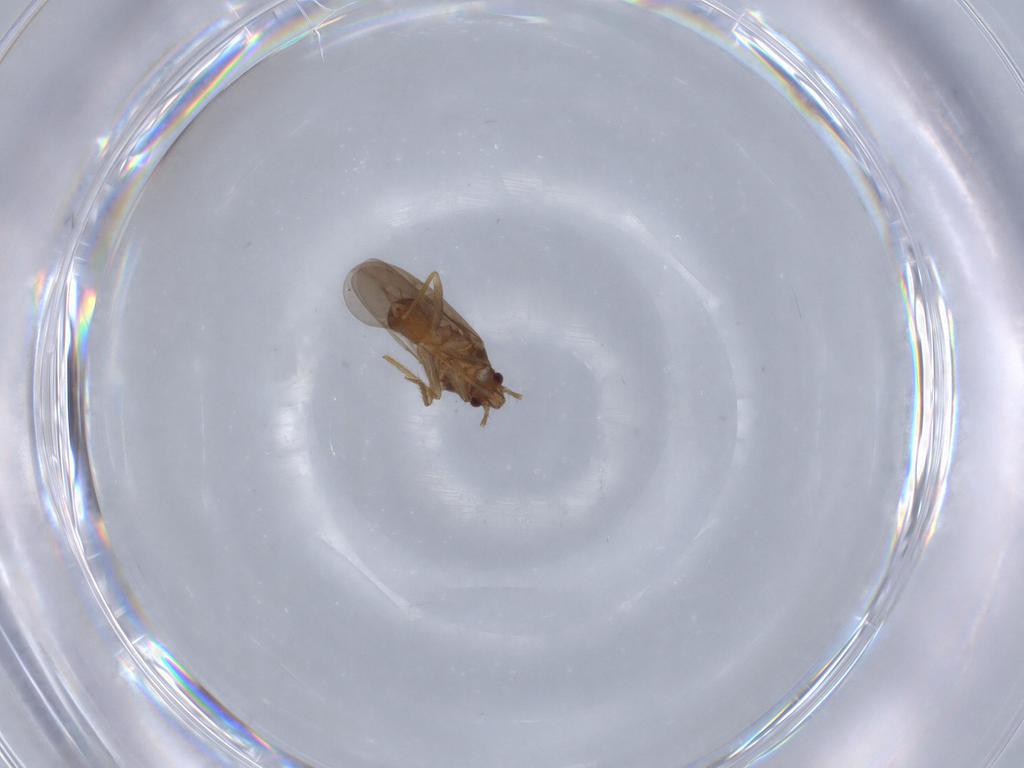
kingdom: Animalia
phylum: Arthropoda
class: Insecta
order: Hemiptera
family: Ceratocombidae
